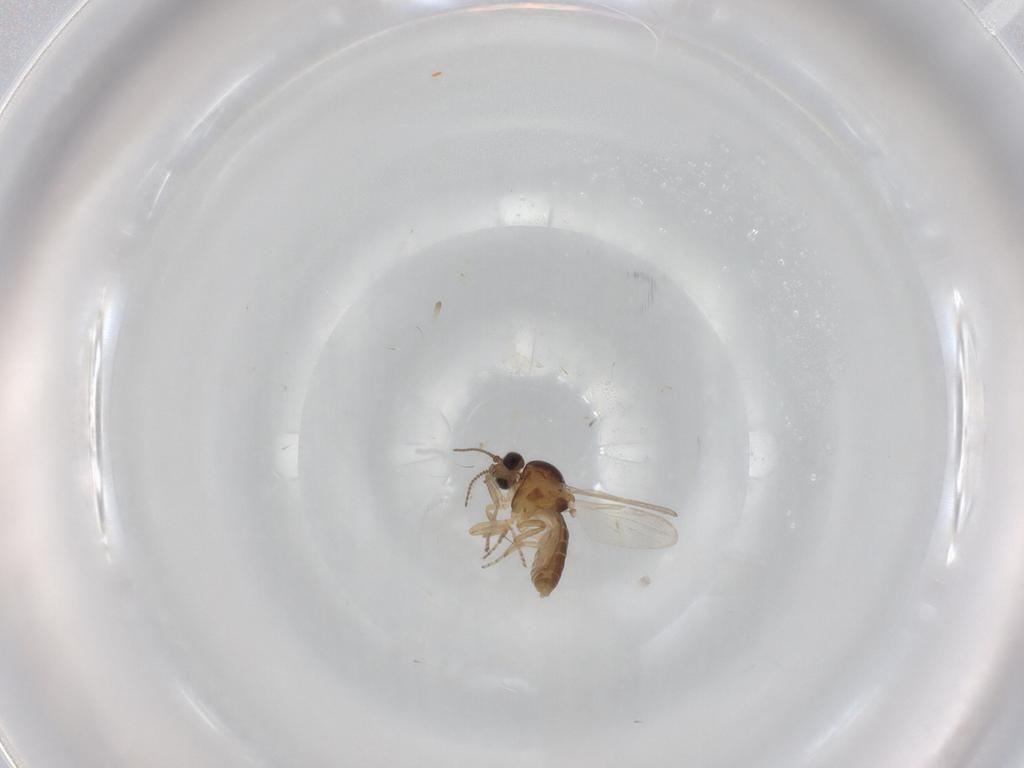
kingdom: Animalia
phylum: Arthropoda
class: Insecta
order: Diptera
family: Ceratopogonidae
